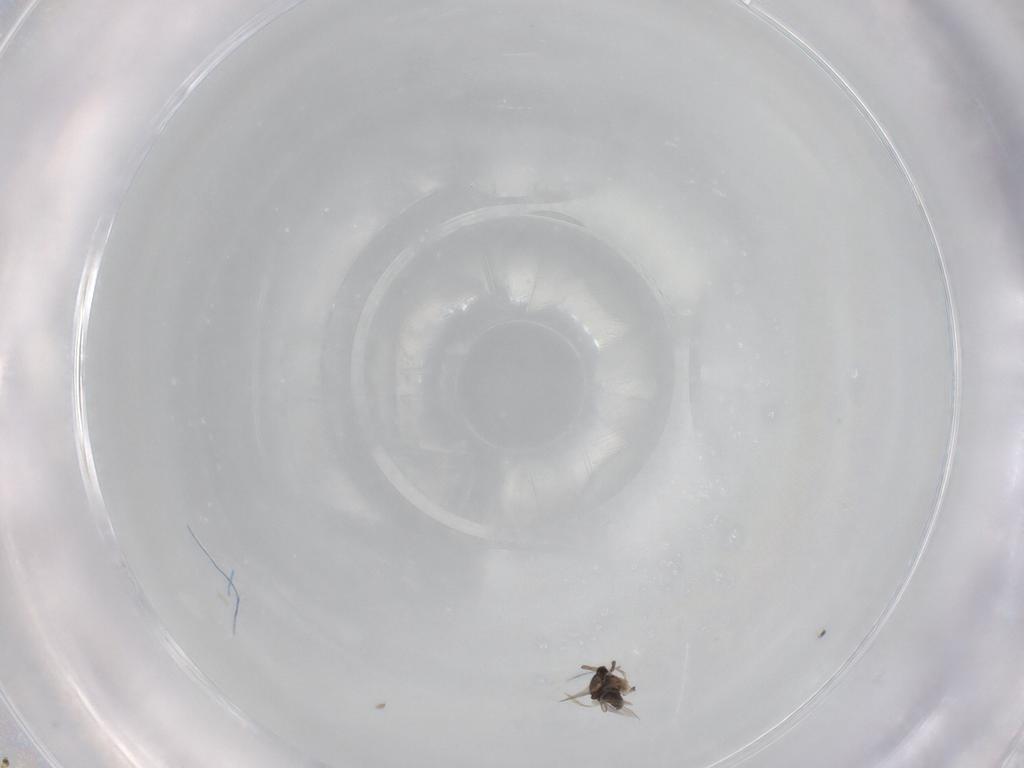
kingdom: Animalia
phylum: Arthropoda
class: Insecta
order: Diptera
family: Cecidomyiidae
